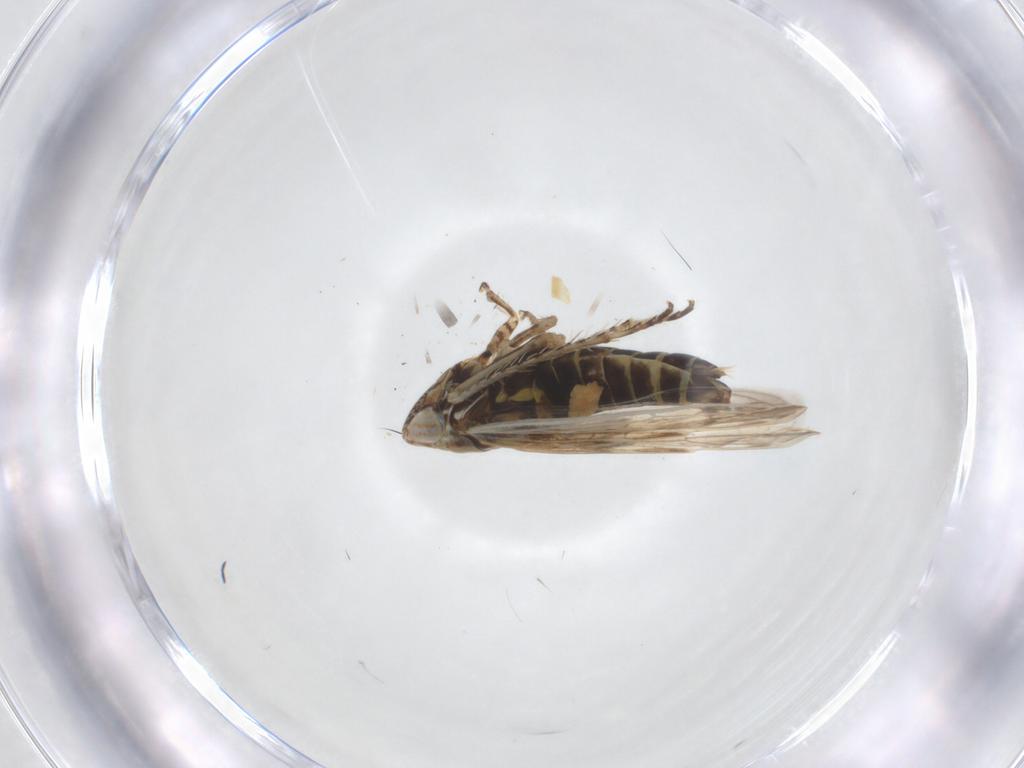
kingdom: Animalia
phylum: Arthropoda
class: Insecta
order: Hemiptera
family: Cicadellidae
